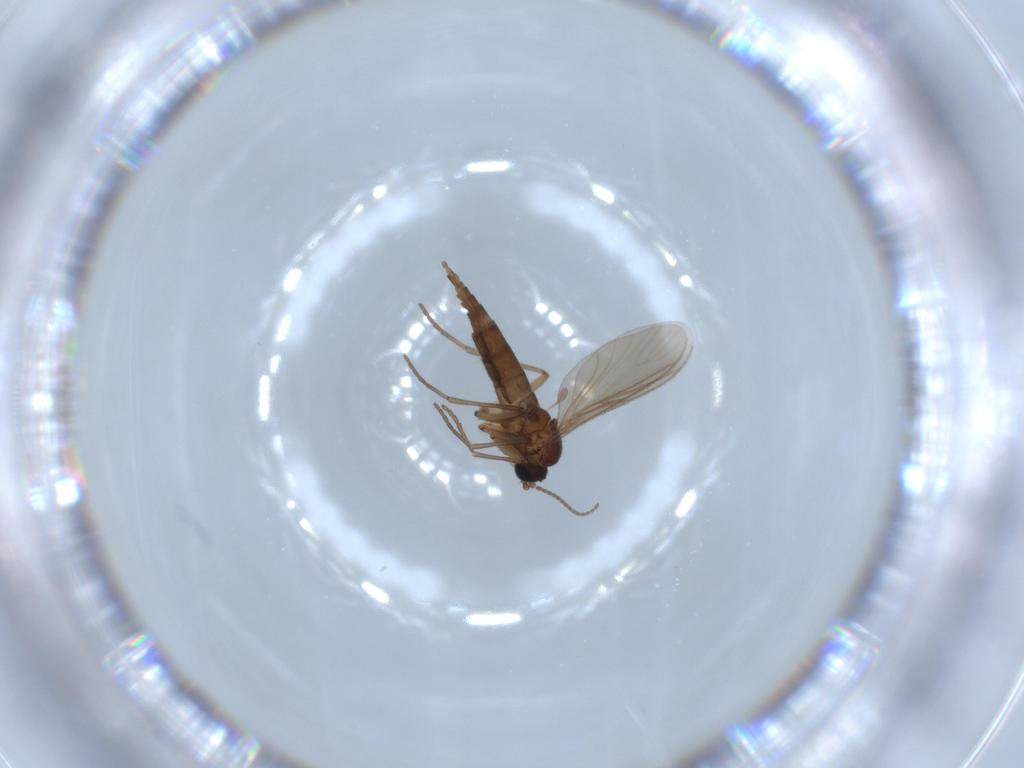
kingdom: Animalia
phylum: Arthropoda
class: Insecta
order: Diptera
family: Sciaridae
